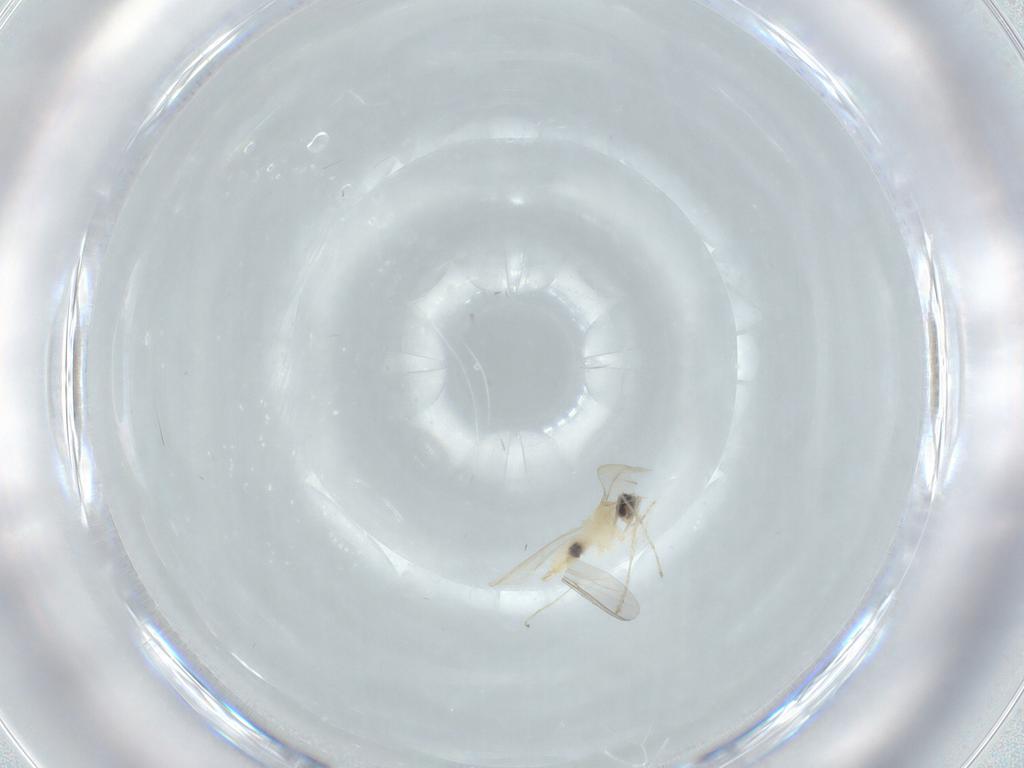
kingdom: Animalia
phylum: Arthropoda
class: Insecta
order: Diptera
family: Cecidomyiidae
